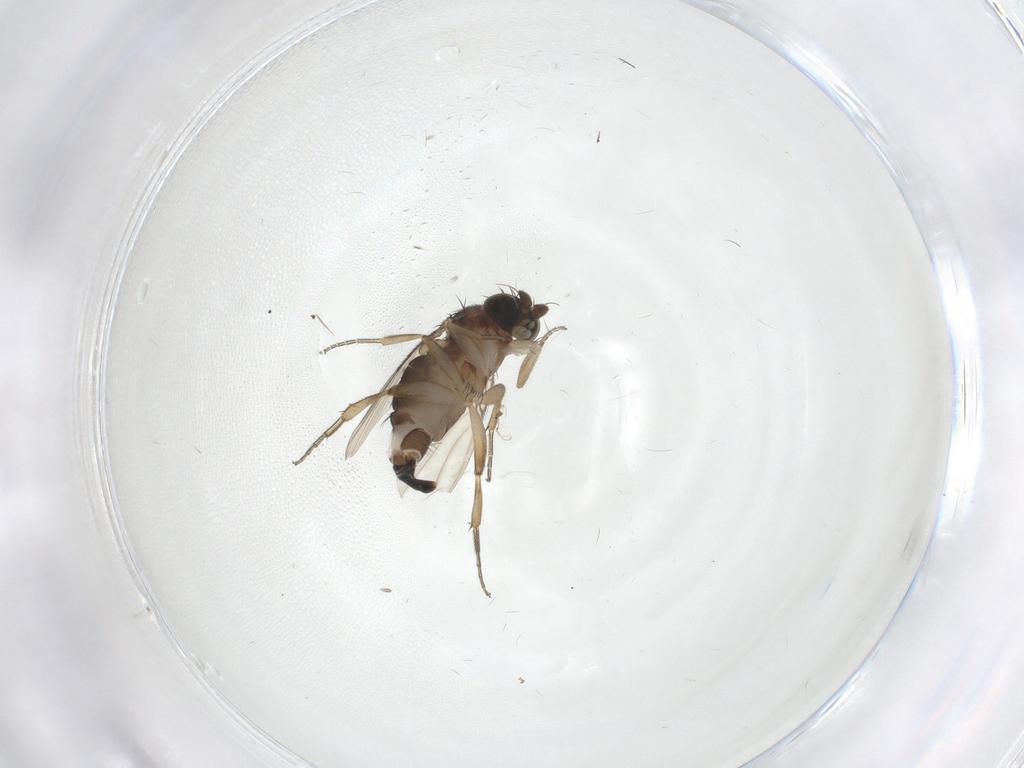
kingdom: Animalia
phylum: Arthropoda
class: Insecta
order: Diptera
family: Phoridae
